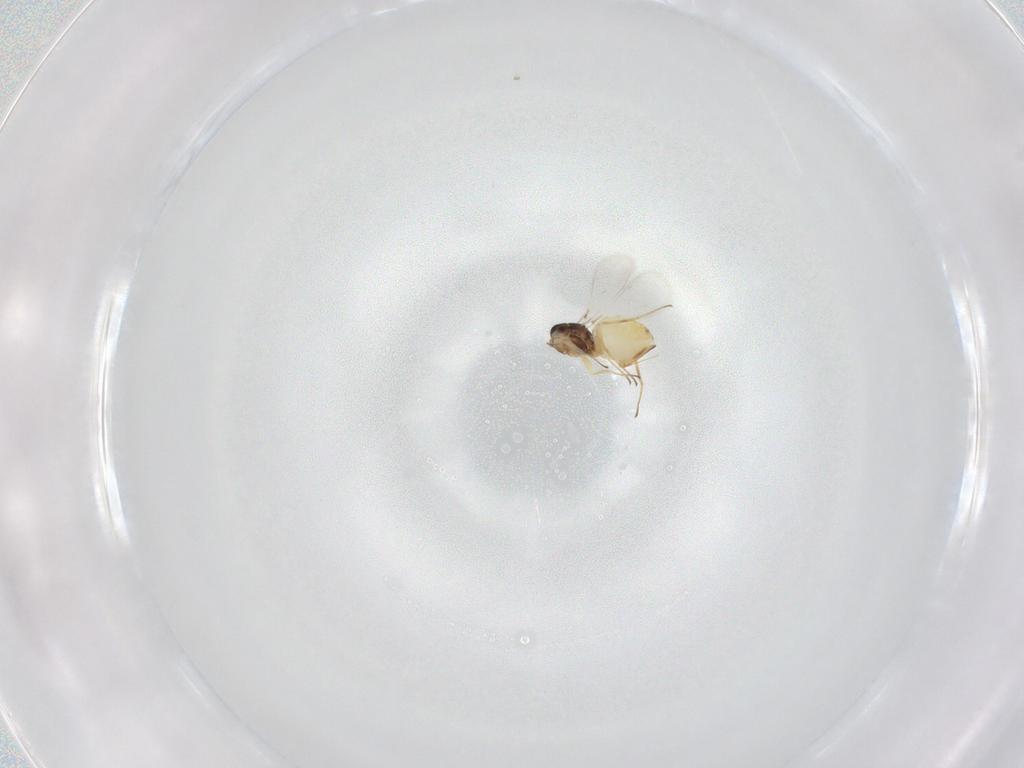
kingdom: Animalia
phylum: Arthropoda
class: Insecta
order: Hymenoptera
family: Mymaridae
